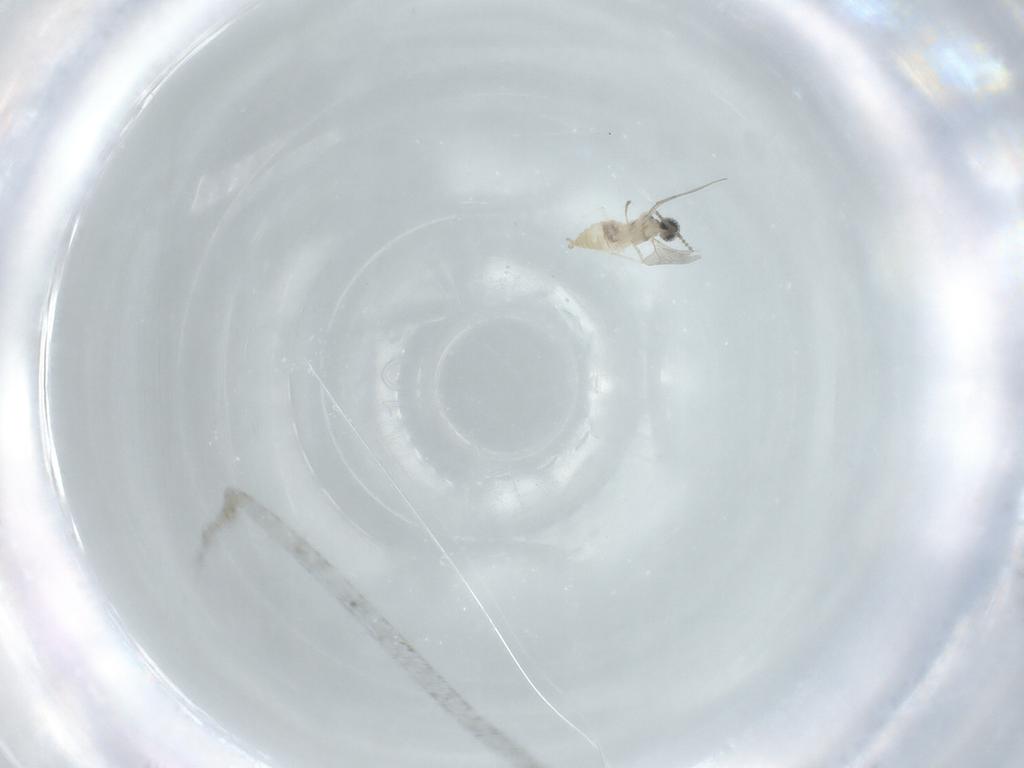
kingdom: Animalia
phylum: Arthropoda
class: Insecta
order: Diptera
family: Cecidomyiidae
